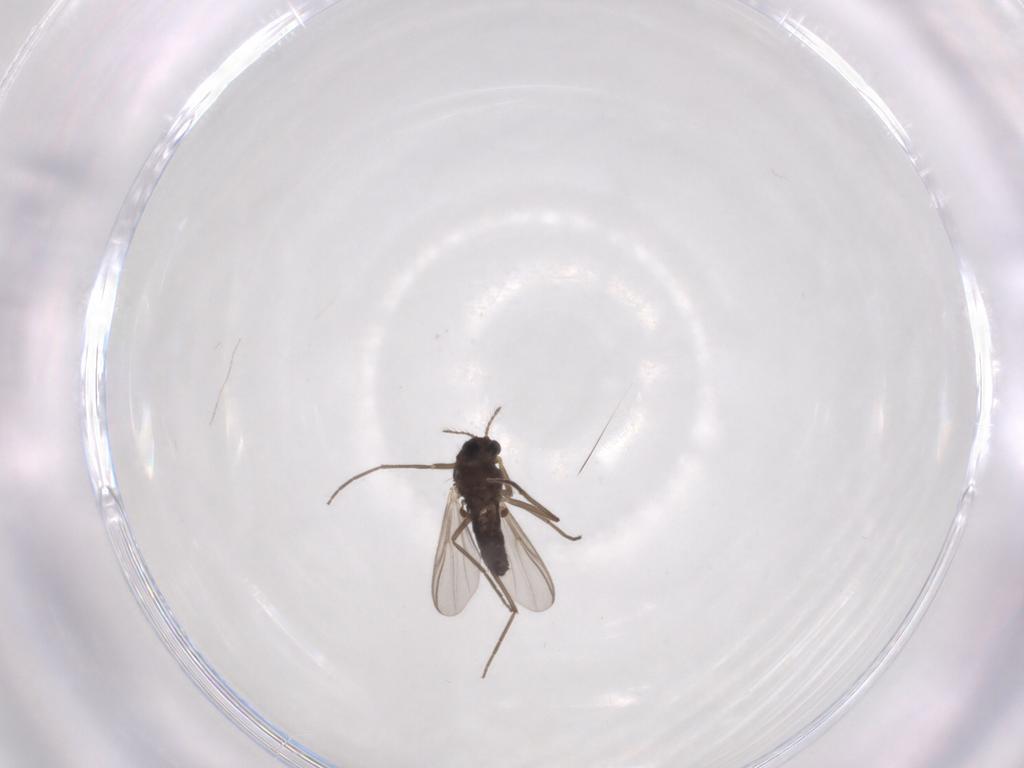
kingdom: Animalia
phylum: Arthropoda
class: Insecta
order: Diptera
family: Chironomidae
